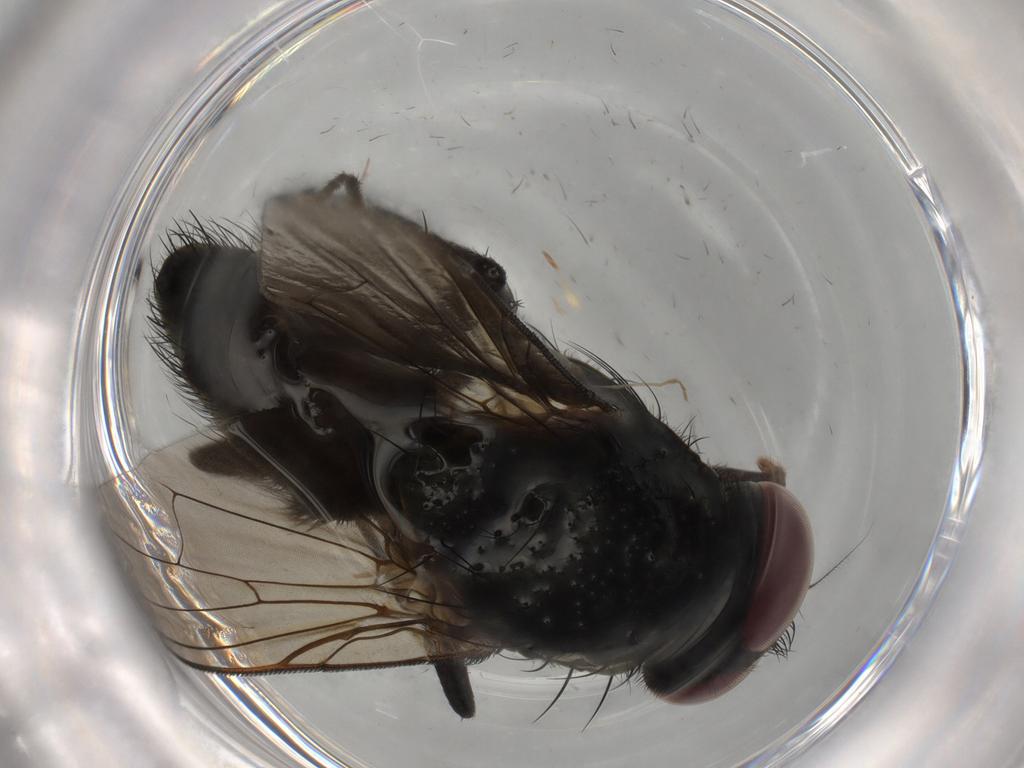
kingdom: Animalia
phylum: Arthropoda
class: Insecta
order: Diptera
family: Muscidae
